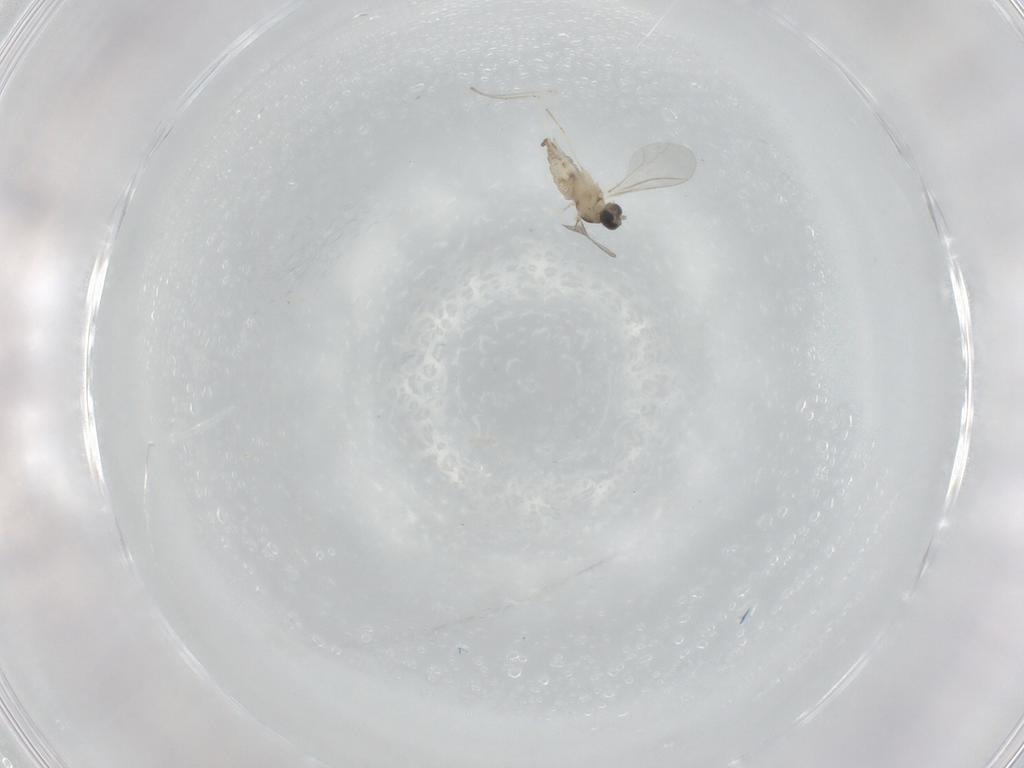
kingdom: Animalia
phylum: Arthropoda
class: Insecta
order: Diptera
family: Cecidomyiidae
